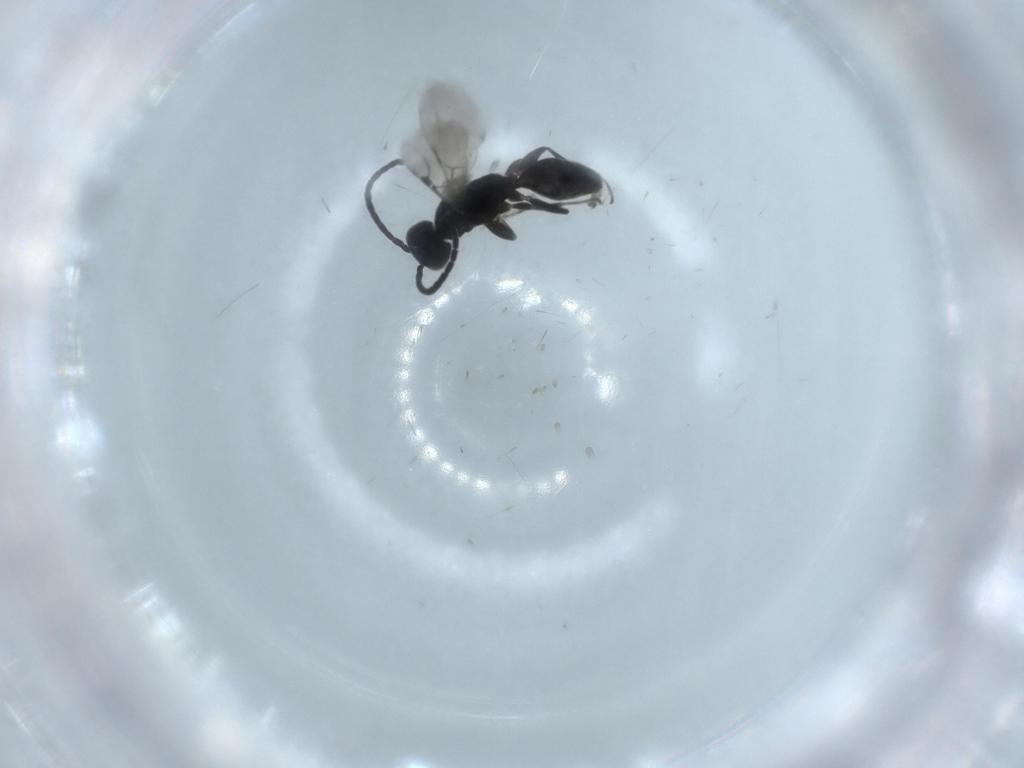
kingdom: Animalia
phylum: Arthropoda
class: Insecta
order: Hymenoptera
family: Bethylidae
